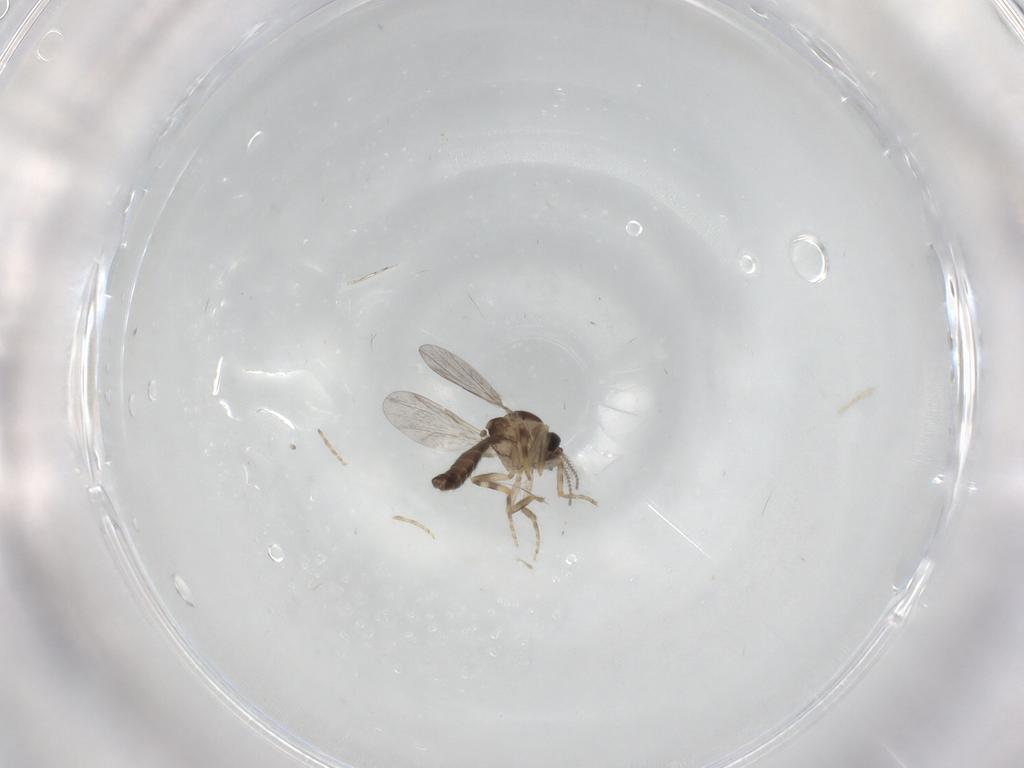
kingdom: Animalia
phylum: Arthropoda
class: Insecta
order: Diptera
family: Ceratopogonidae
